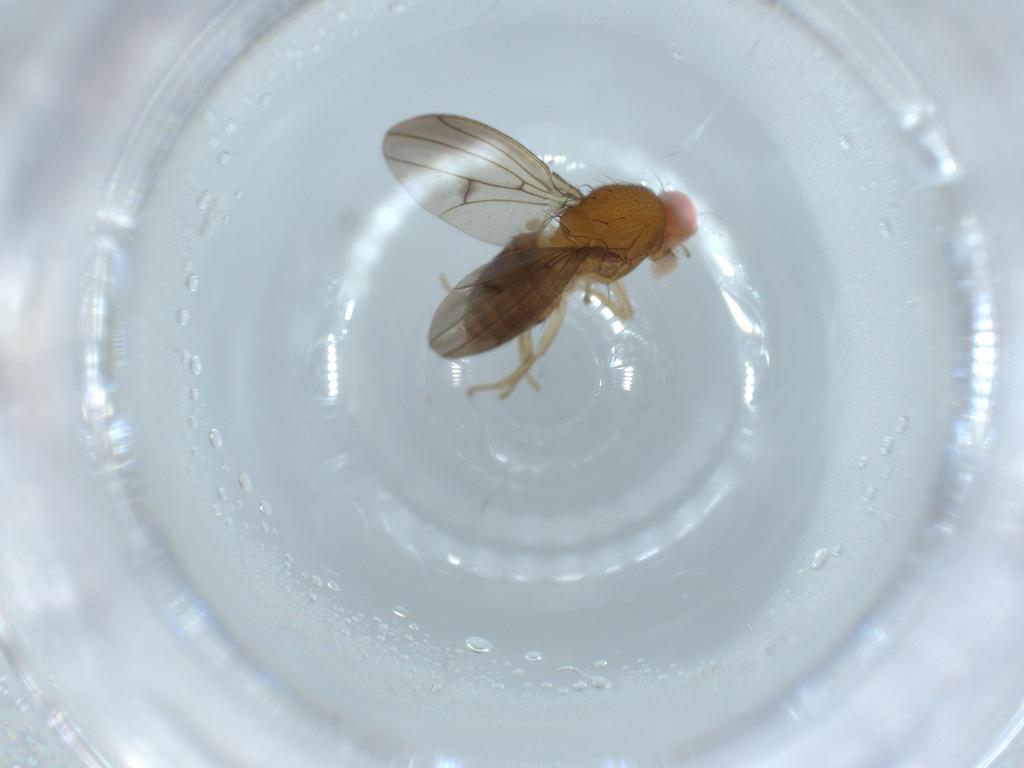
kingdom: Animalia
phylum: Arthropoda
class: Insecta
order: Diptera
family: Drosophilidae
